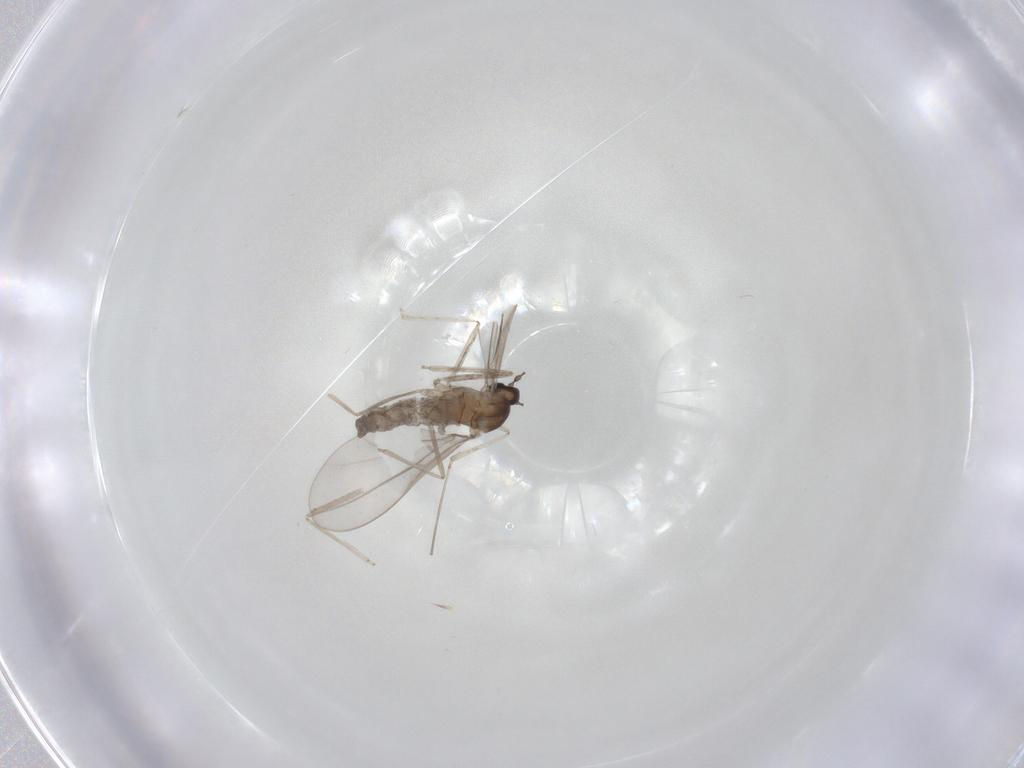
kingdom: Animalia
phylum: Arthropoda
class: Insecta
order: Diptera
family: Cecidomyiidae
